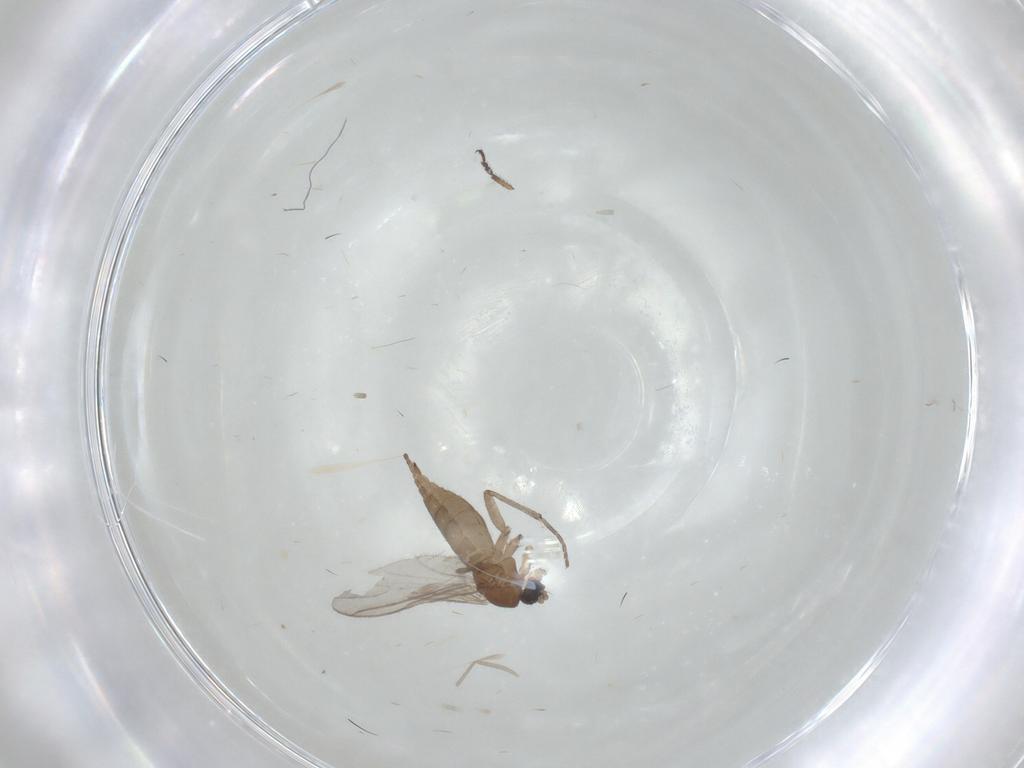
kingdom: Animalia
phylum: Arthropoda
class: Insecta
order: Diptera
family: Sciaridae
